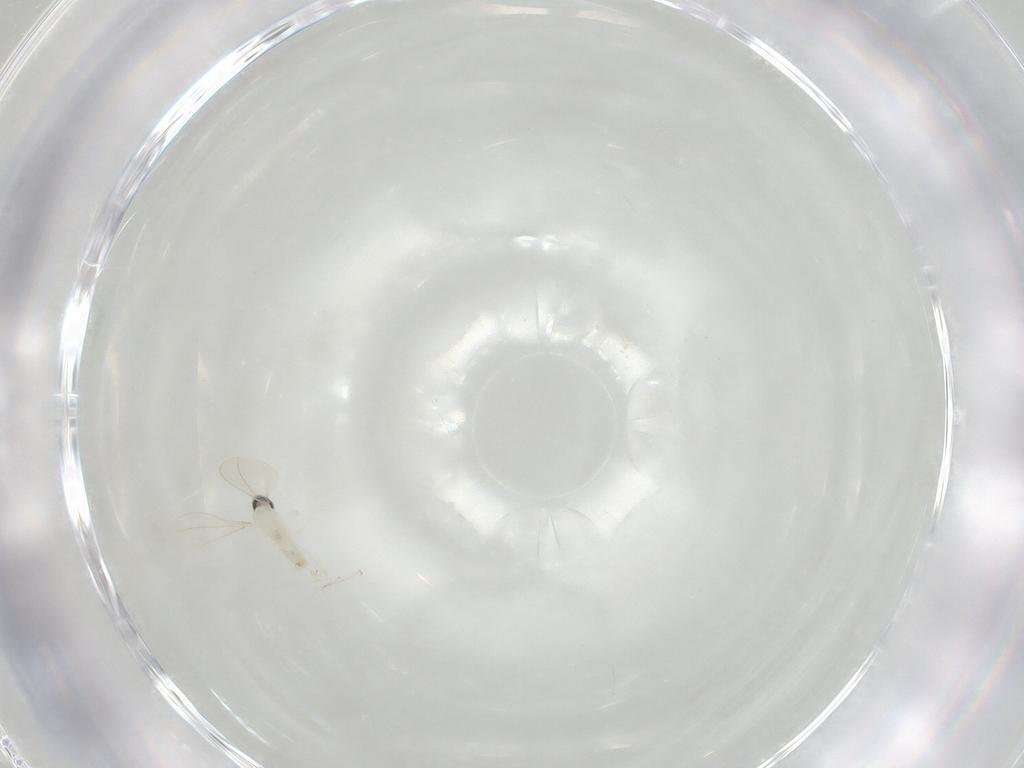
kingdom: Animalia
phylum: Arthropoda
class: Insecta
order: Diptera
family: Cecidomyiidae
